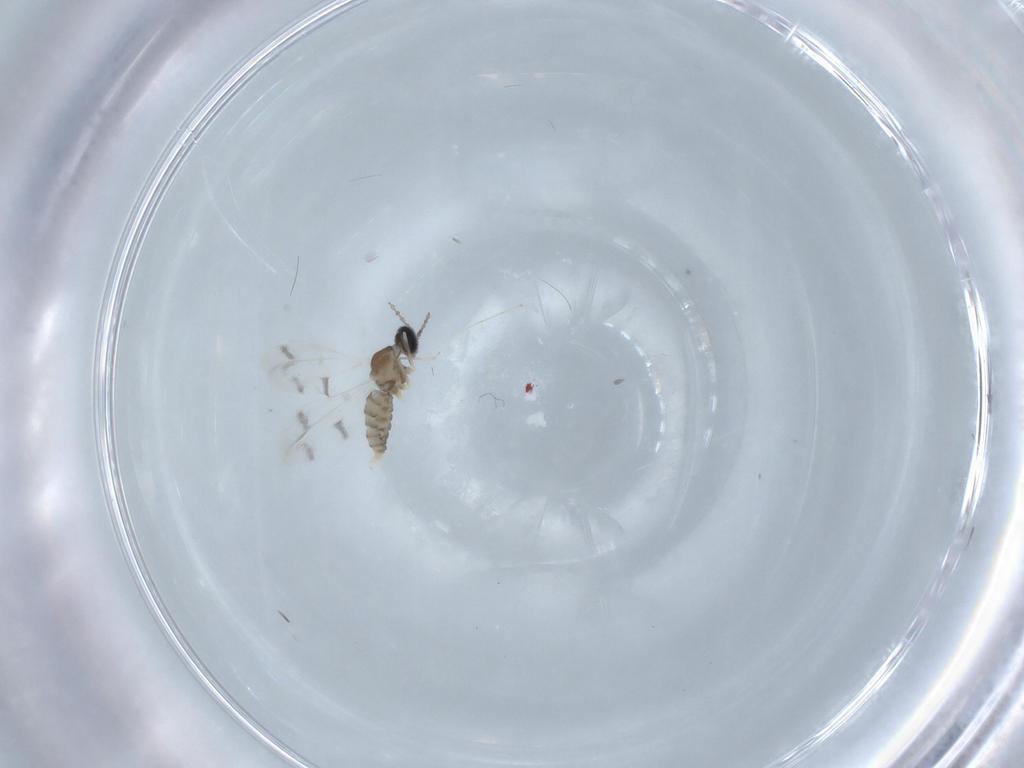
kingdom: Animalia
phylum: Arthropoda
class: Insecta
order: Diptera
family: Cecidomyiidae
